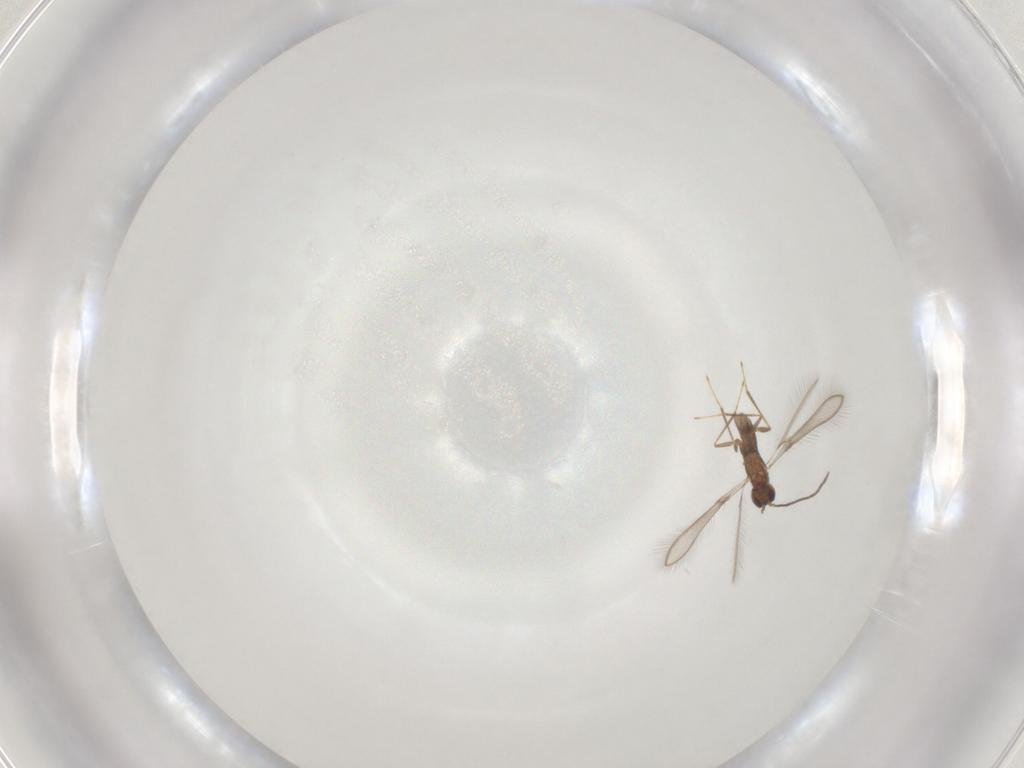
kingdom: Animalia
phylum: Arthropoda
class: Insecta
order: Hymenoptera
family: Mymaridae
